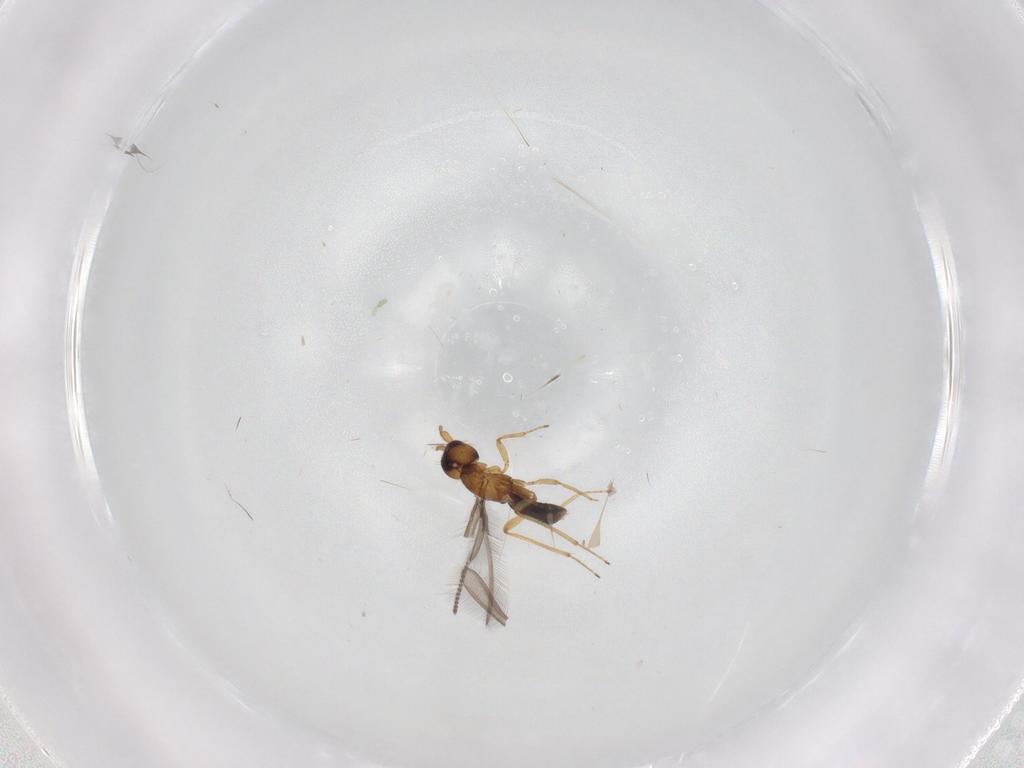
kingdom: Animalia
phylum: Arthropoda
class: Insecta
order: Hymenoptera
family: Mymaridae
